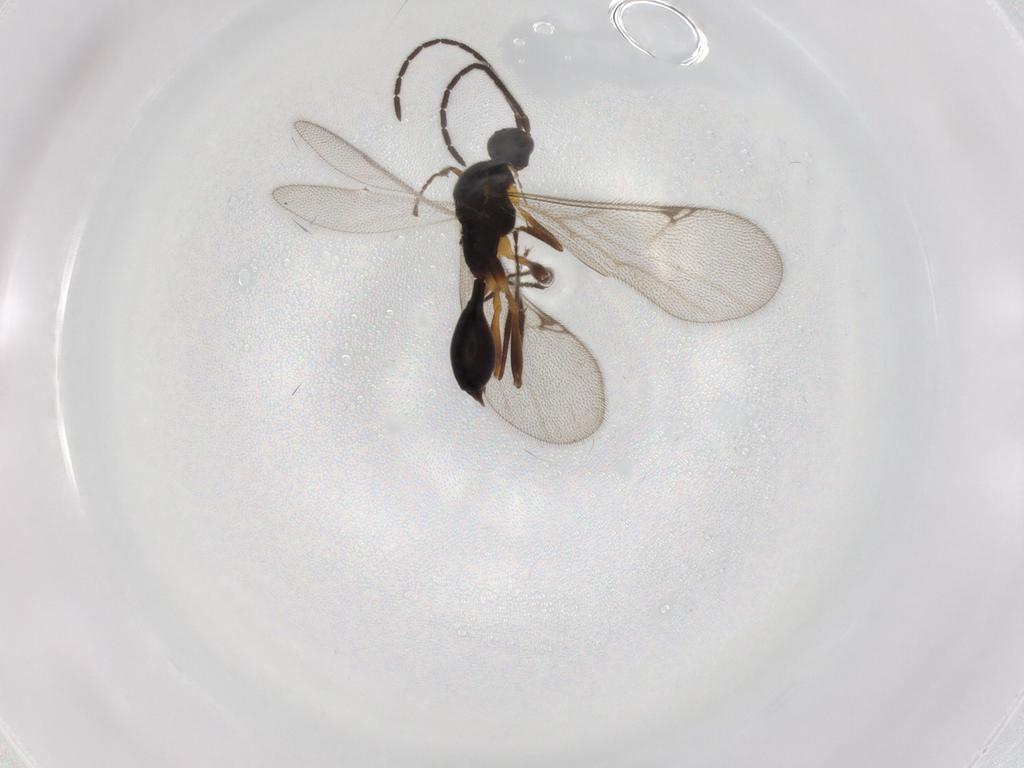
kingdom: Animalia
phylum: Arthropoda
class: Insecta
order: Hymenoptera
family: Proctotrupidae
